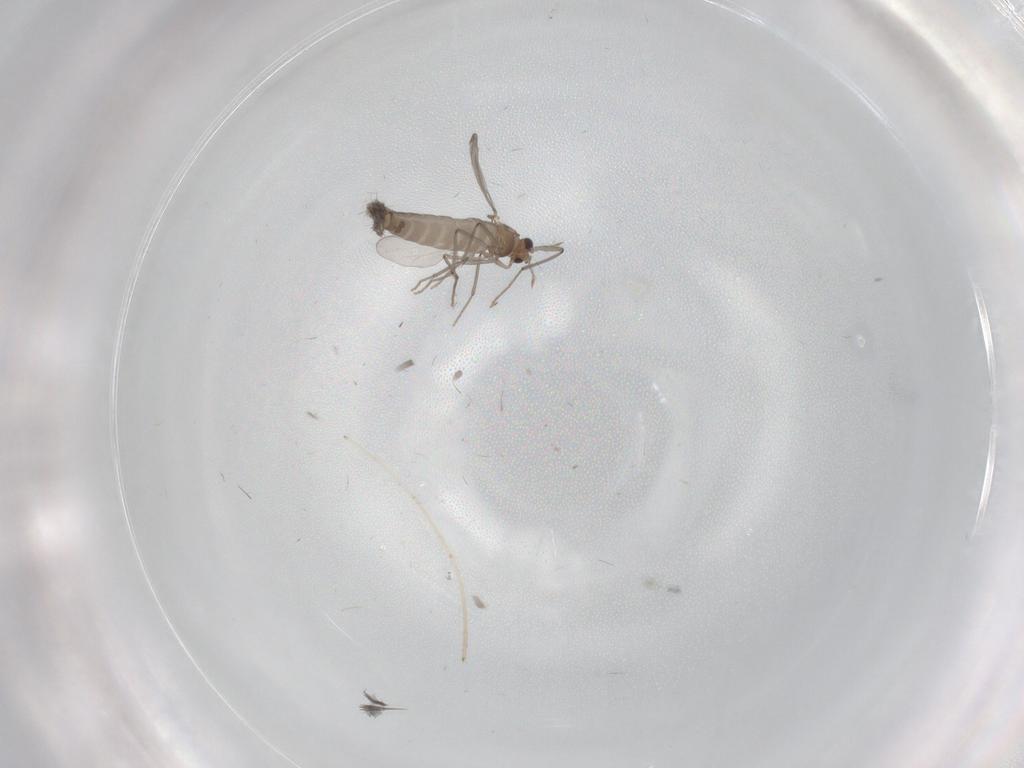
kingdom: Animalia
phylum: Arthropoda
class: Insecta
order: Diptera
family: Chironomidae
